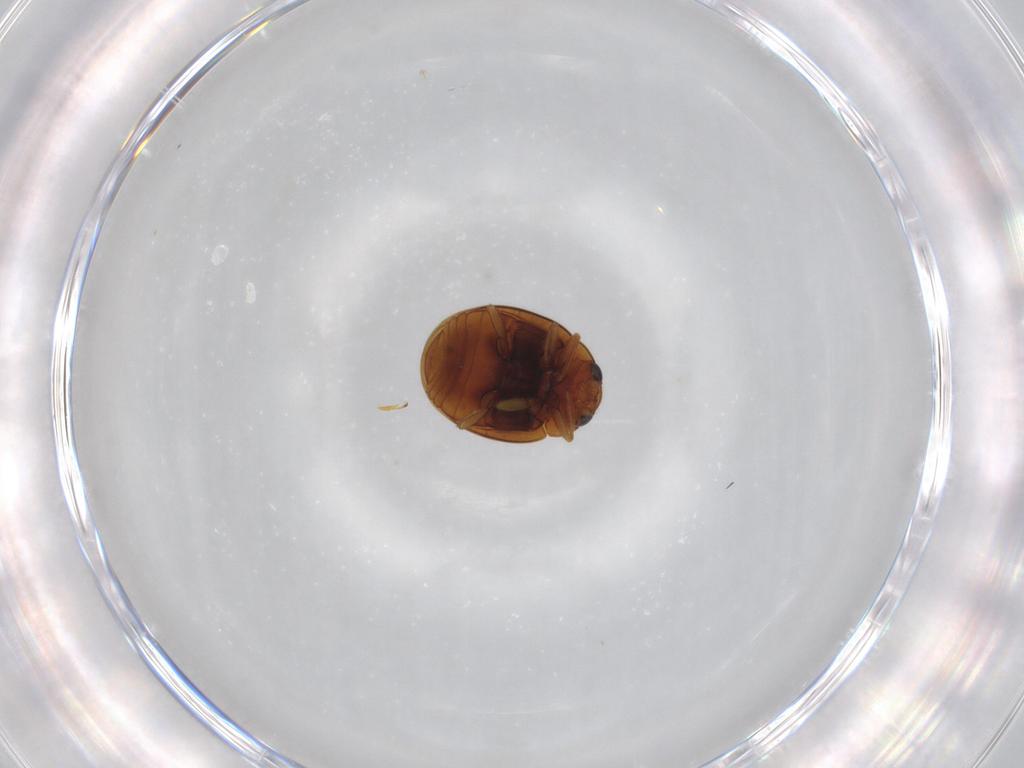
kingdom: Animalia
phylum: Arthropoda
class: Insecta
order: Coleoptera
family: Coccinellidae
